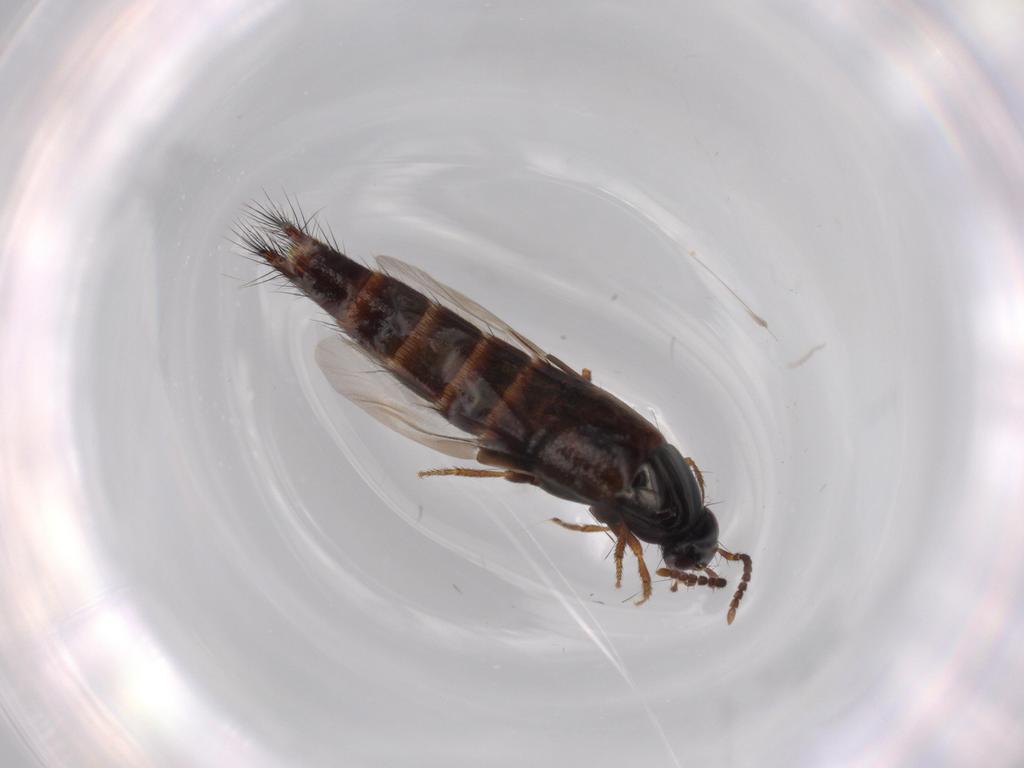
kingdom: Animalia
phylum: Arthropoda
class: Insecta
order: Coleoptera
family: Staphylinidae
